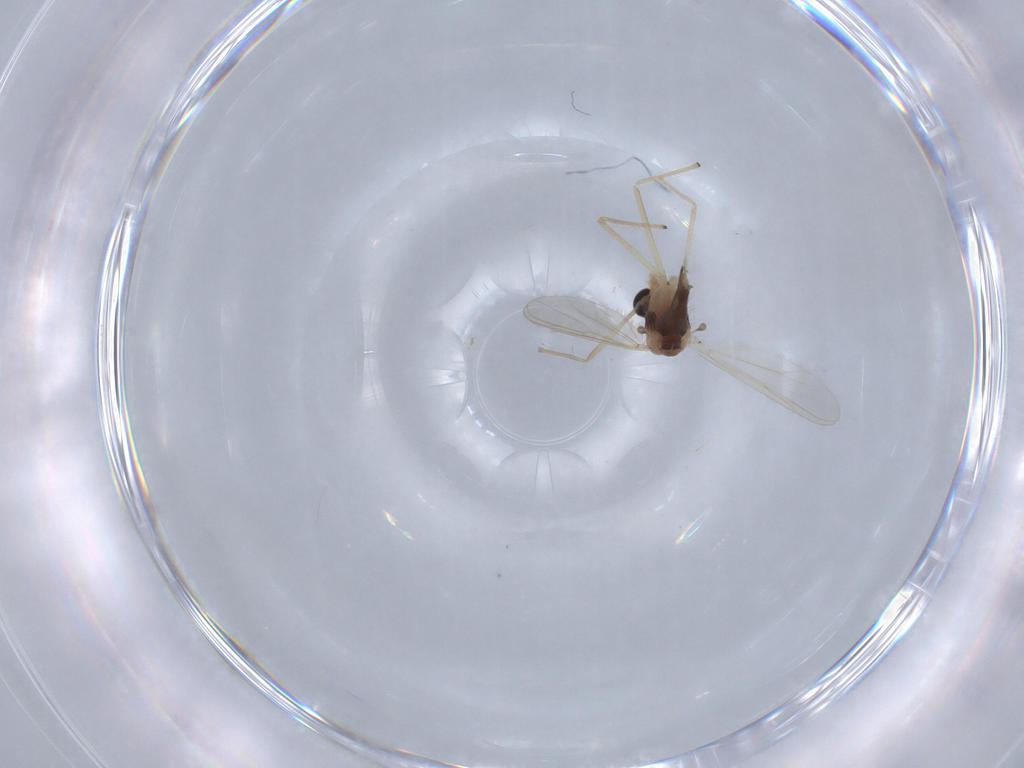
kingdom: Animalia
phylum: Arthropoda
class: Insecta
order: Diptera
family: Chironomidae
